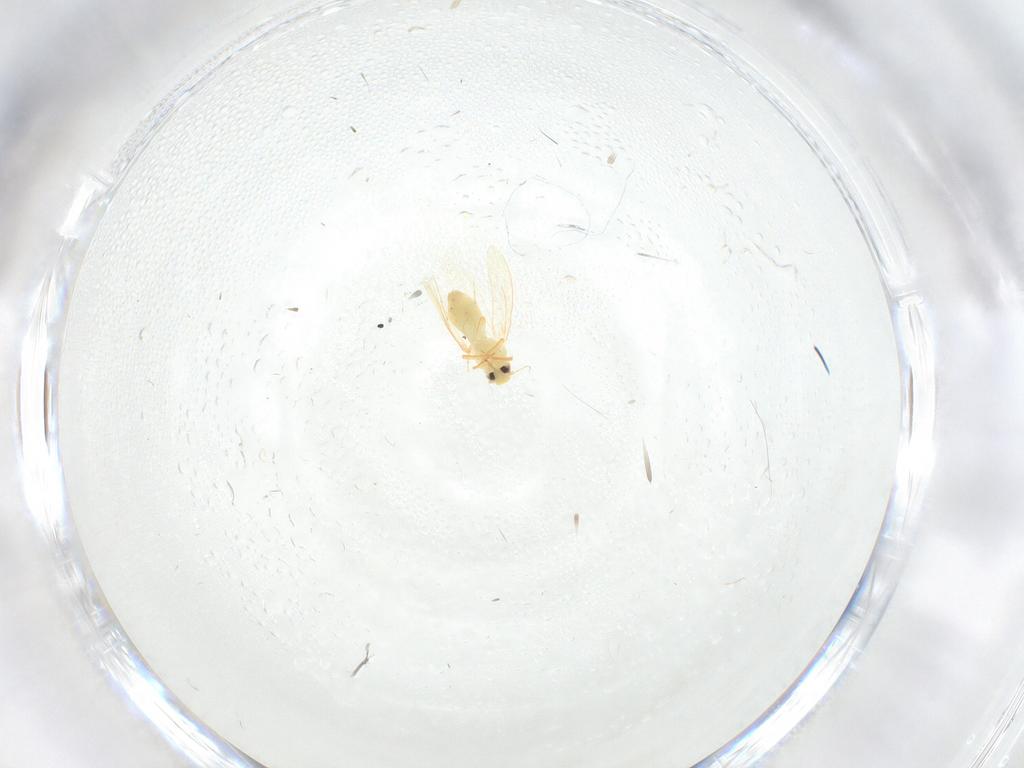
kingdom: Animalia
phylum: Arthropoda
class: Insecta
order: Hemiptera
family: Aleyrodidae
